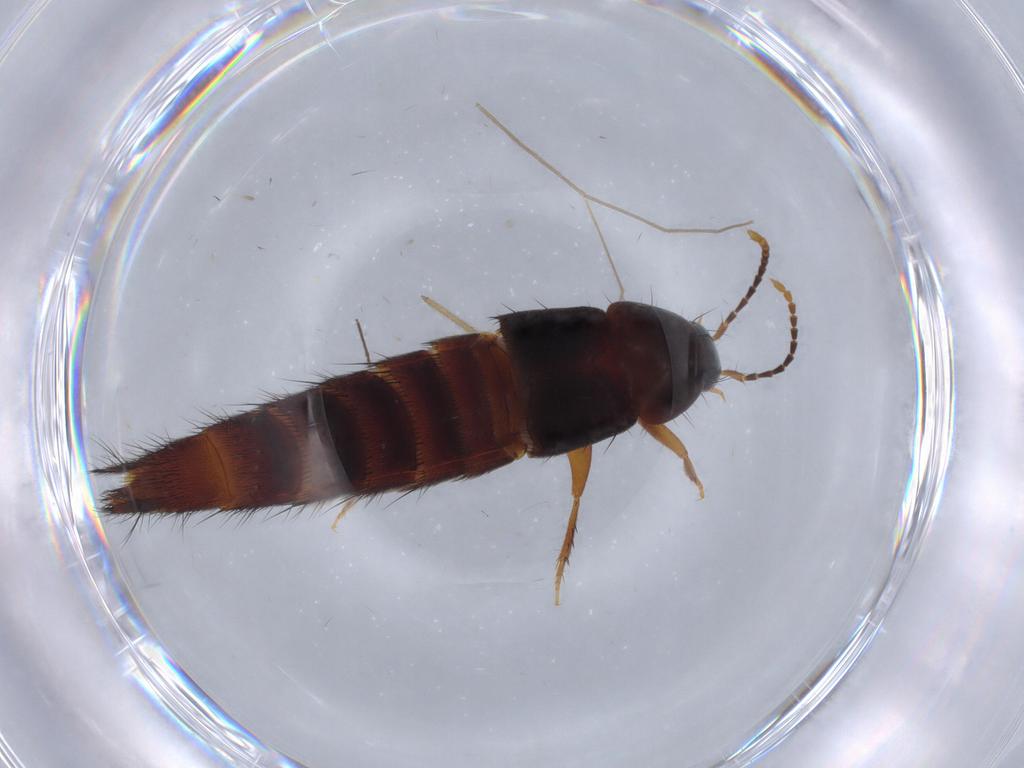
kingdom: Animalia
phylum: Arthropoda
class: Insecta
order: Coleoptera
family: Staphylinidae
